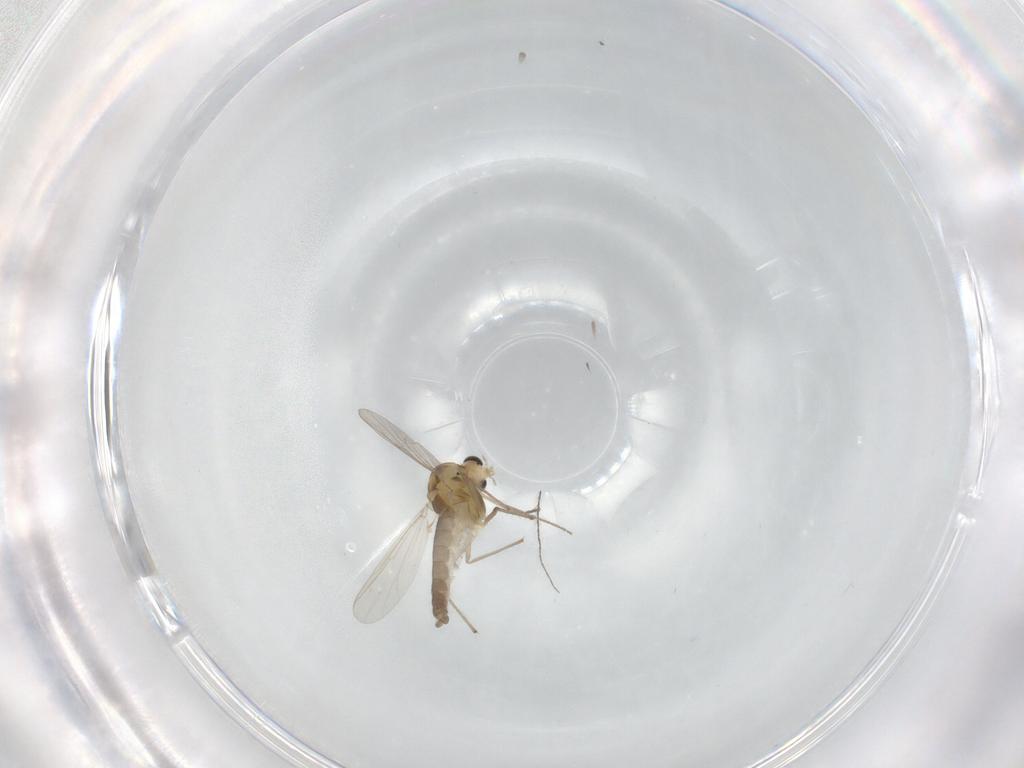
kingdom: Animalia
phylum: Arthropoda
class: Insecta
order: Diptera
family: Chironomidae
